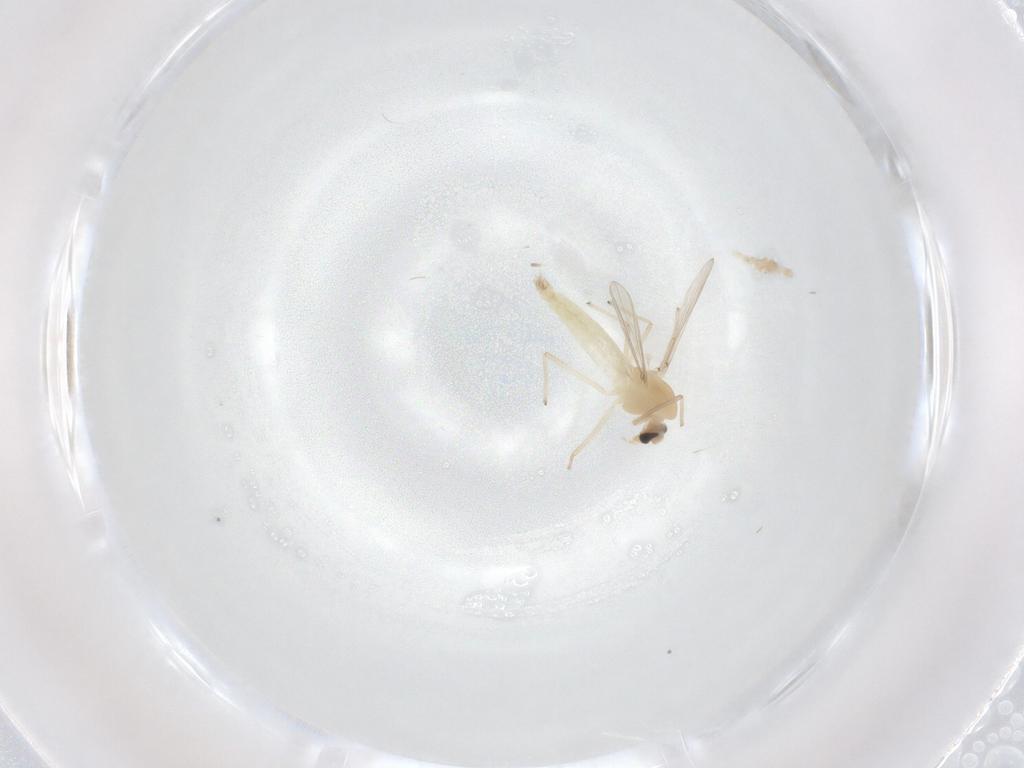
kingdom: Animalia
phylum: Arthropoda
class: Insecta
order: Diptera
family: Chironomidae
